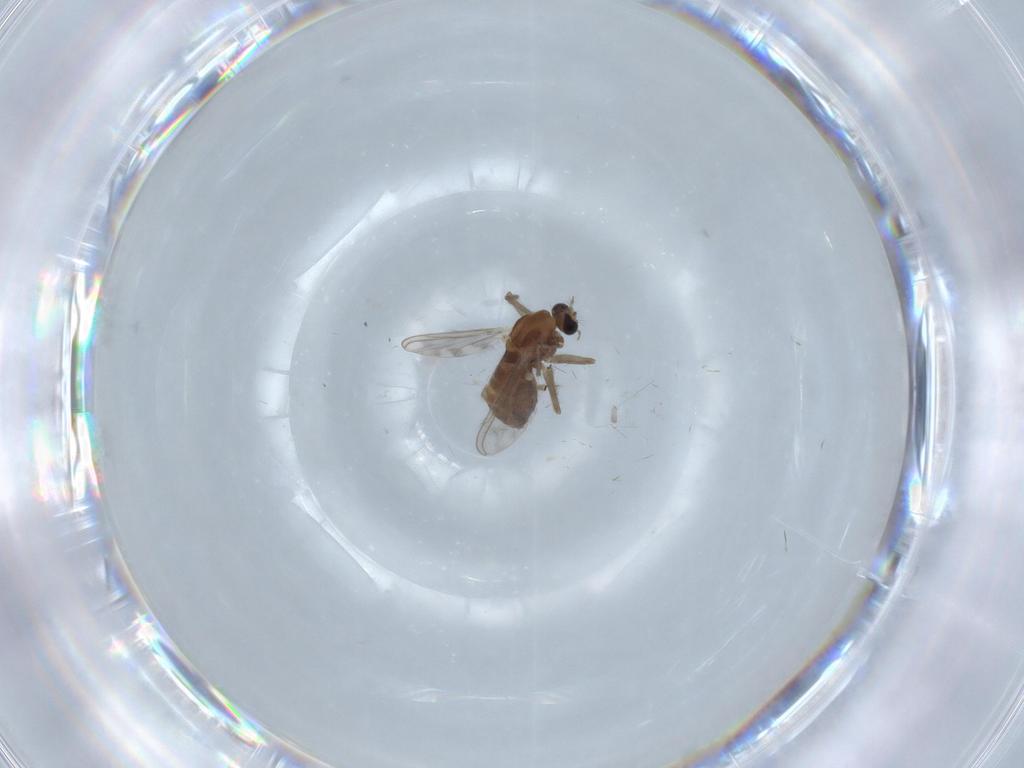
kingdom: Animalia
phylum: Arthropoda
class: Insecta
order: Diptera
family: Chironomidae
